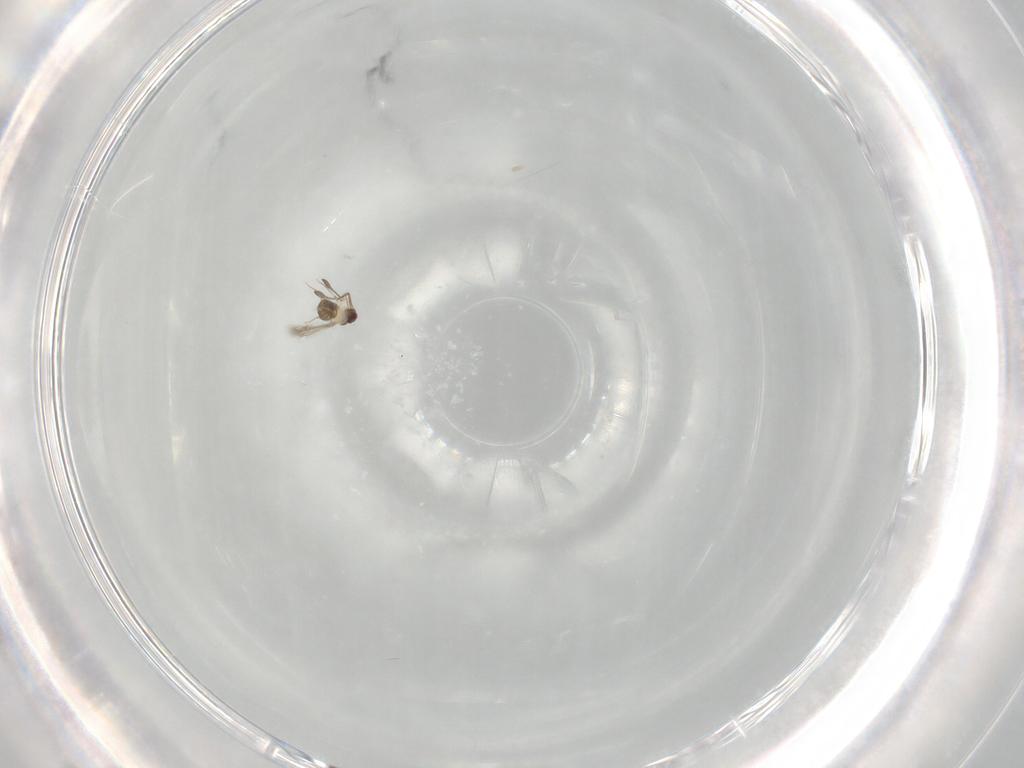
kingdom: Animalia
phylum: Arthropoda
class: Insecta
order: Hymenoptera
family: Mymaridae
